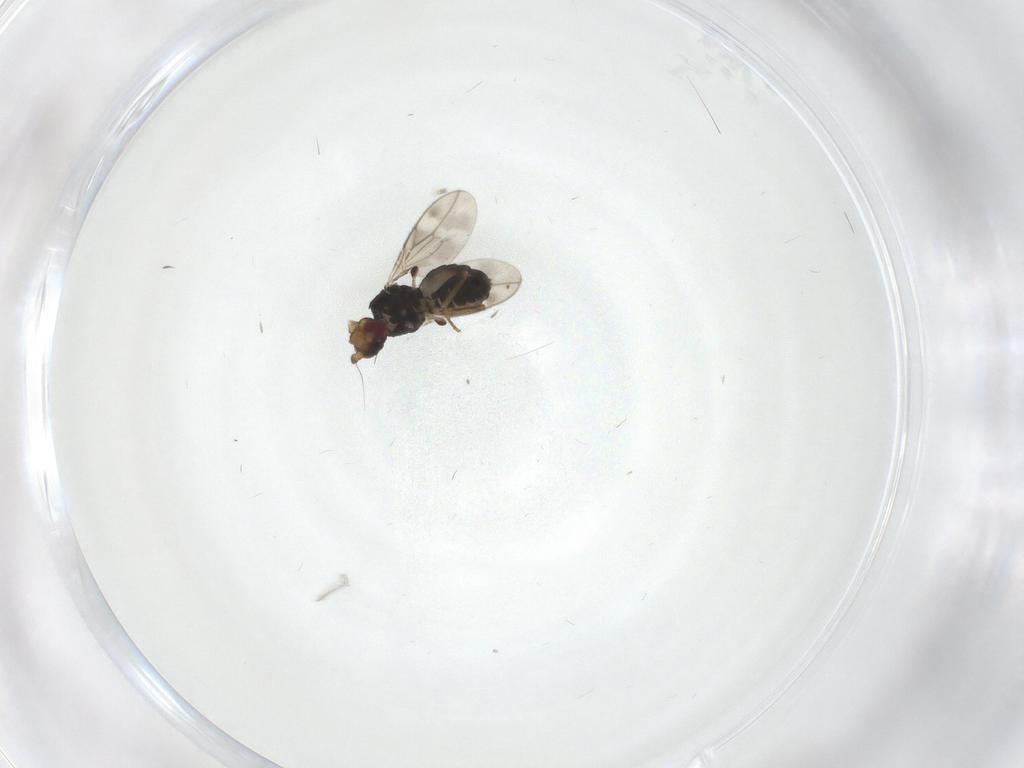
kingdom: Animalia
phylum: Arthropoda
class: Insecta
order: Diptera
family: Sphaeroceridae
